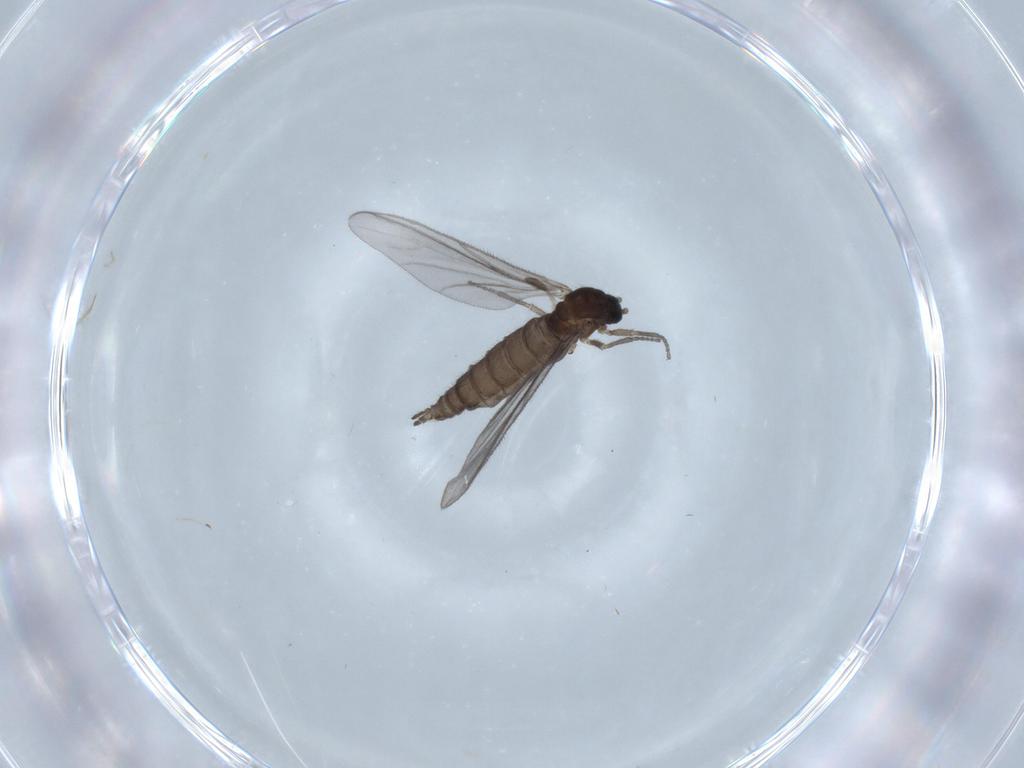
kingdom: Animalia
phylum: Arthropoda
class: Insecta
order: Diptera
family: Sciaridae
